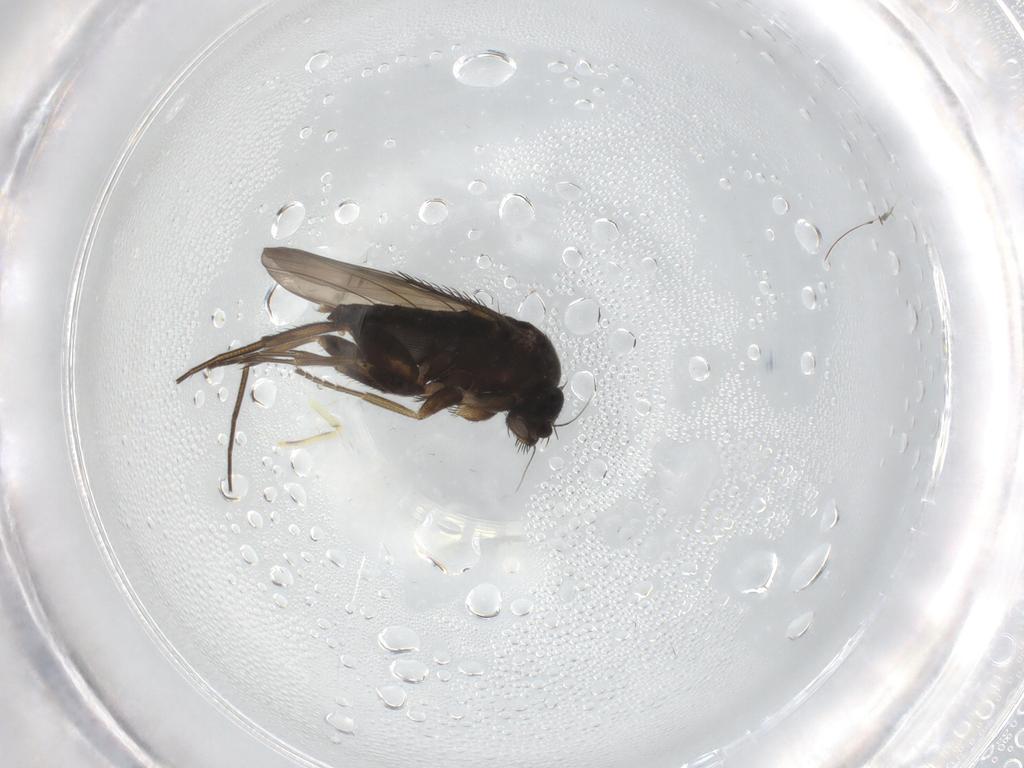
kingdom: Animalia
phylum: Arthropoda
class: Insecta
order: Diptera
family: Phoridae
